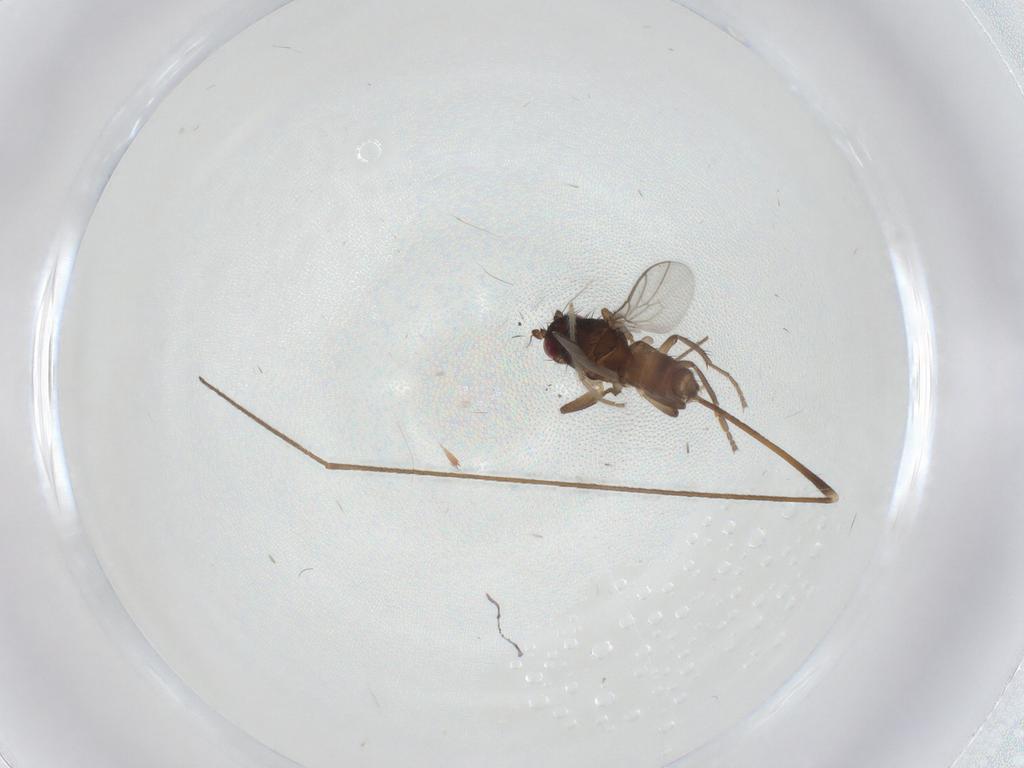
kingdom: Animalia
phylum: Arthropoda
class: Insecta
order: Diptera
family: Limoniidae
